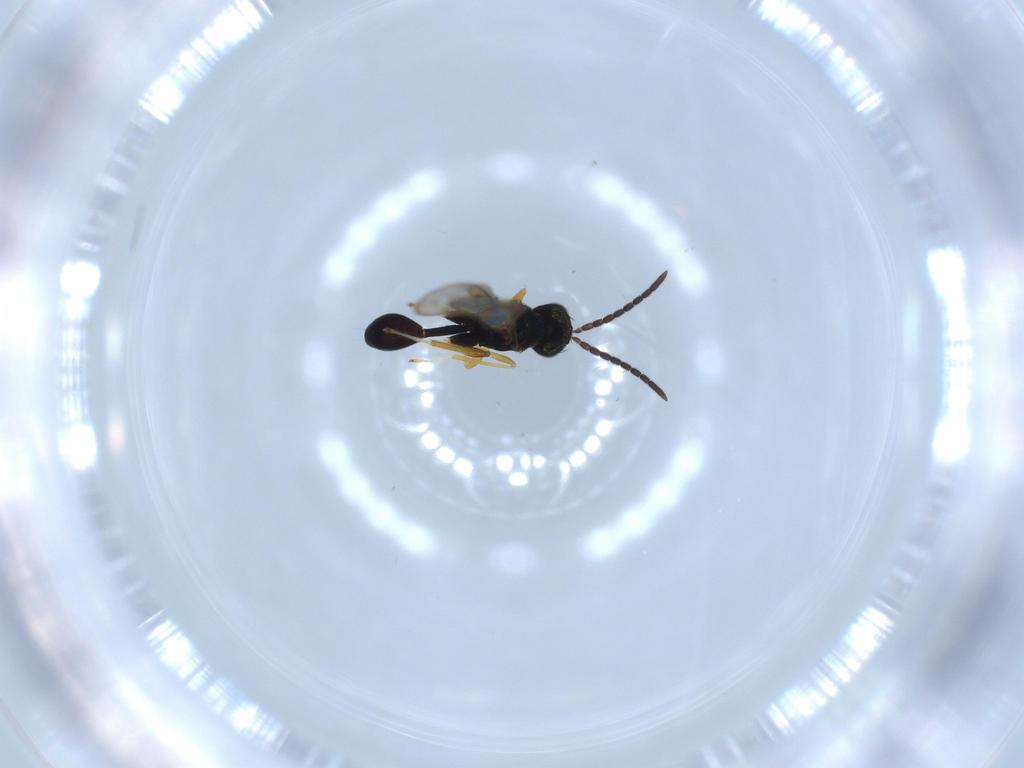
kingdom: Animalia
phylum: Arthropoda
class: Insecta
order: Hymenoptera
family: Diparidae
